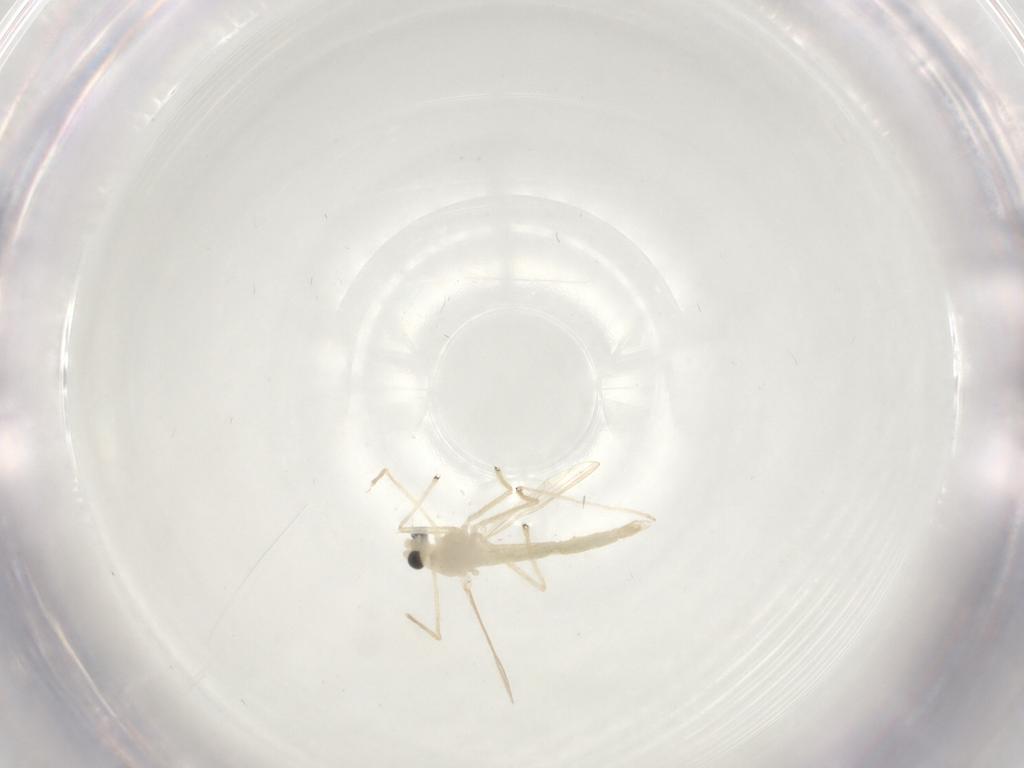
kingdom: Animalia
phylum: Arthropoda
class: Insecta
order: Diptera
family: Chironomidae
